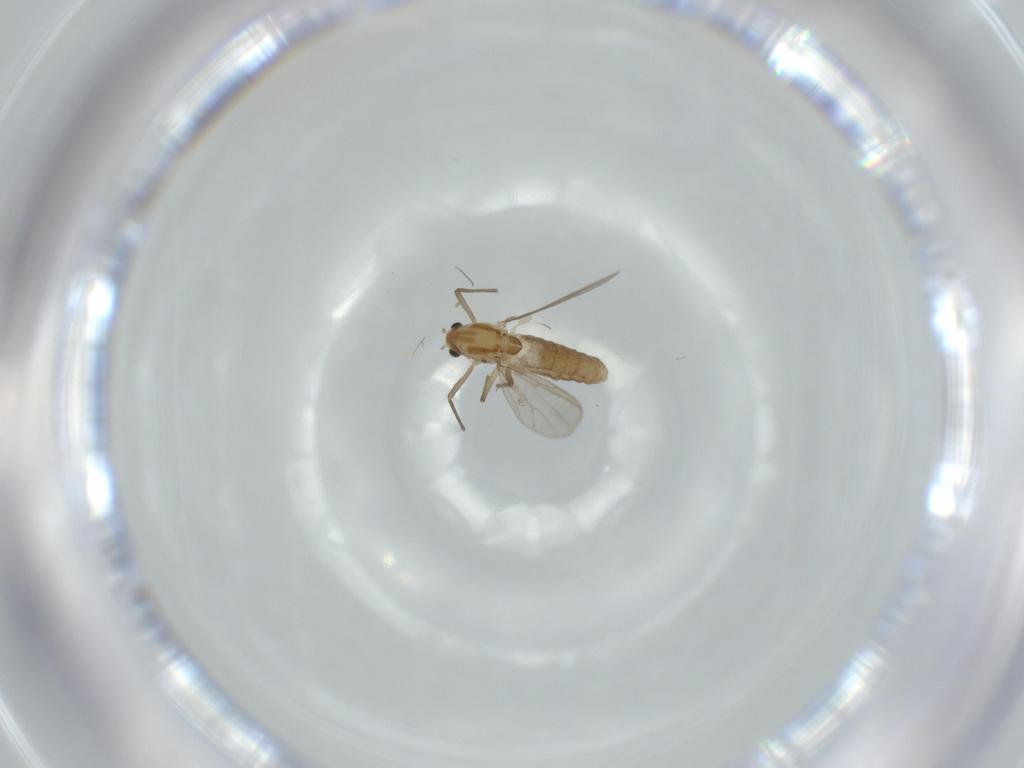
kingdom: Animalia
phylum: Arthropoda
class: Insecta
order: Diptera
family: Chironomidae
